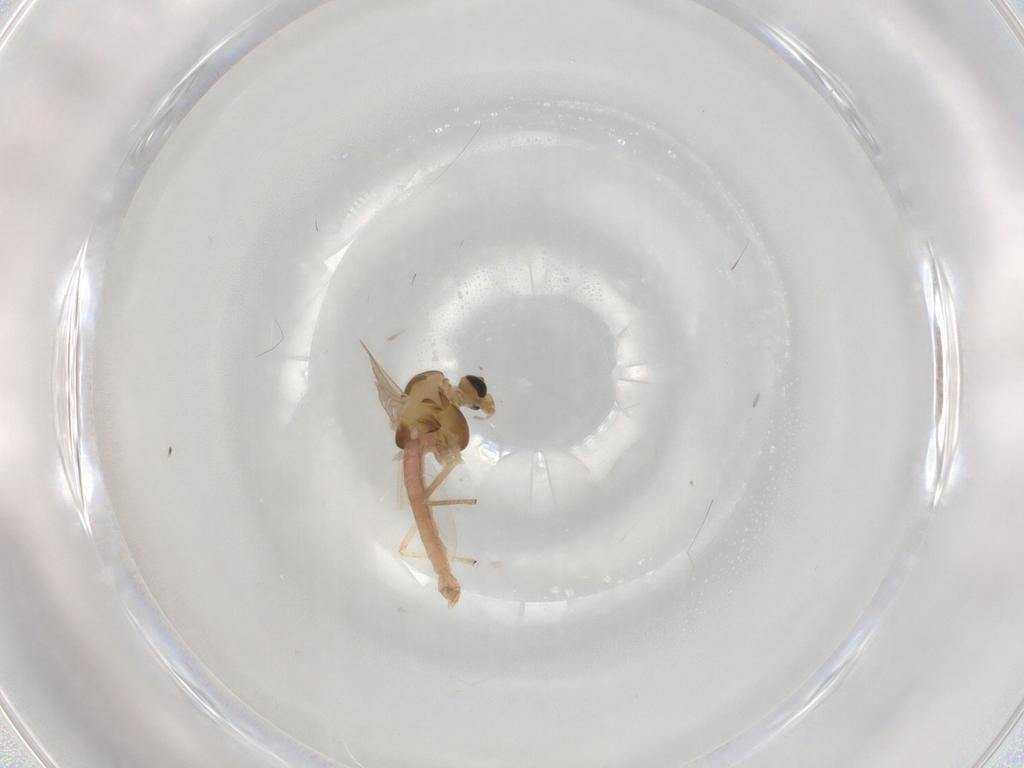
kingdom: Animalia
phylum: Arthropoda
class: Insecta
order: Diptera
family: Chironomidae
